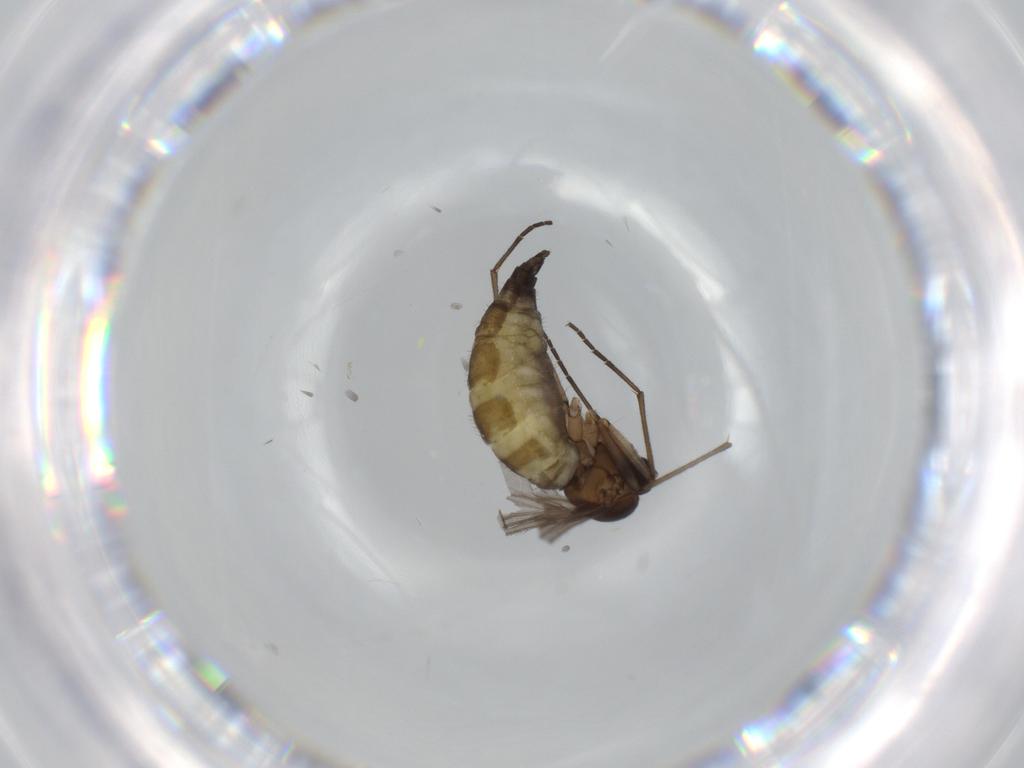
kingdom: Animalia
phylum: Arthropoda
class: Insecta
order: Diptera
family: Sciaridae
